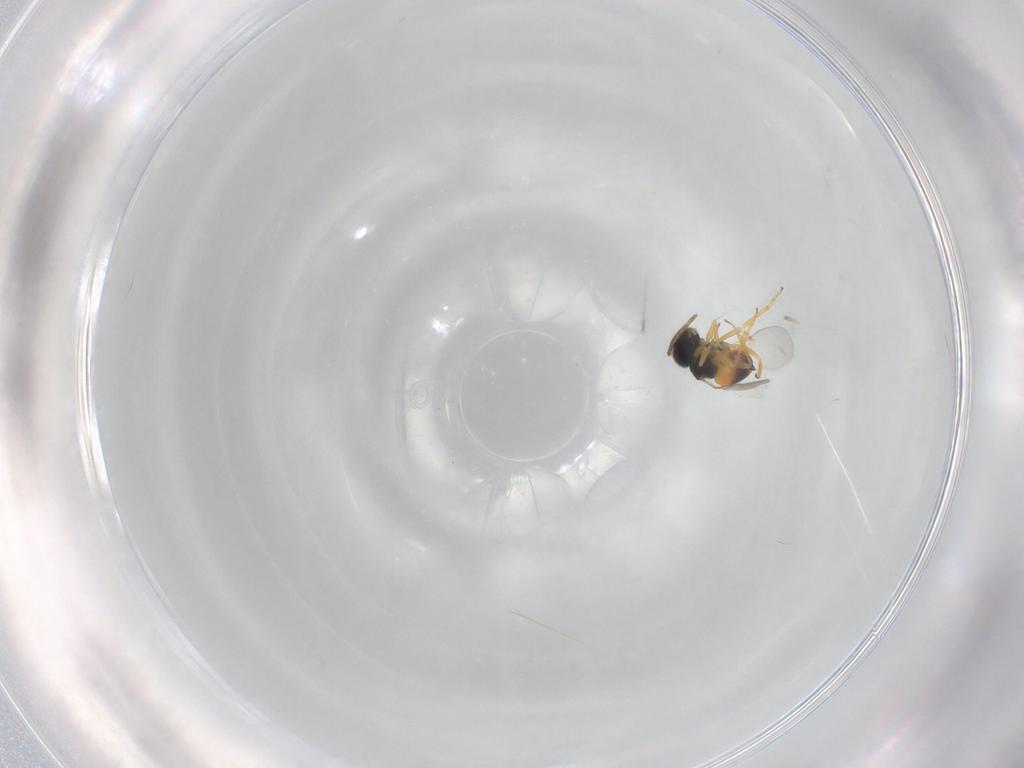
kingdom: Animalia
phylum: Arthropoda
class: Insecta
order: Hymenoptera
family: Encyrtidae
